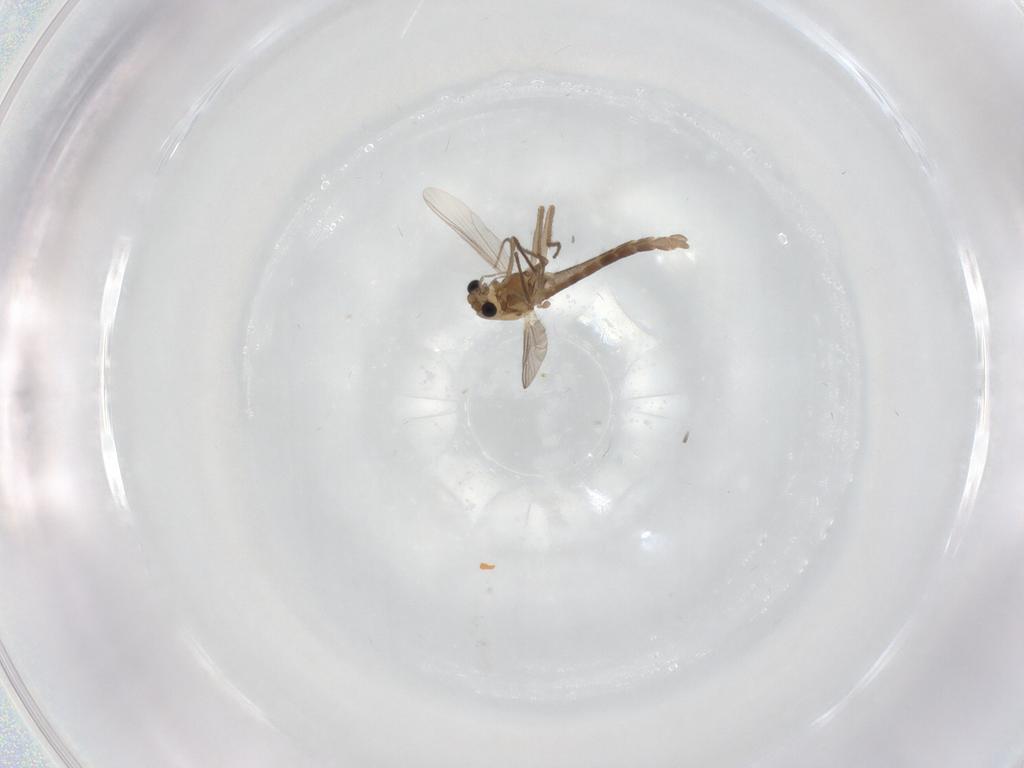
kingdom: Animalia
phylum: Arthropoda
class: Insecta
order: Diptera
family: Chironomidae
